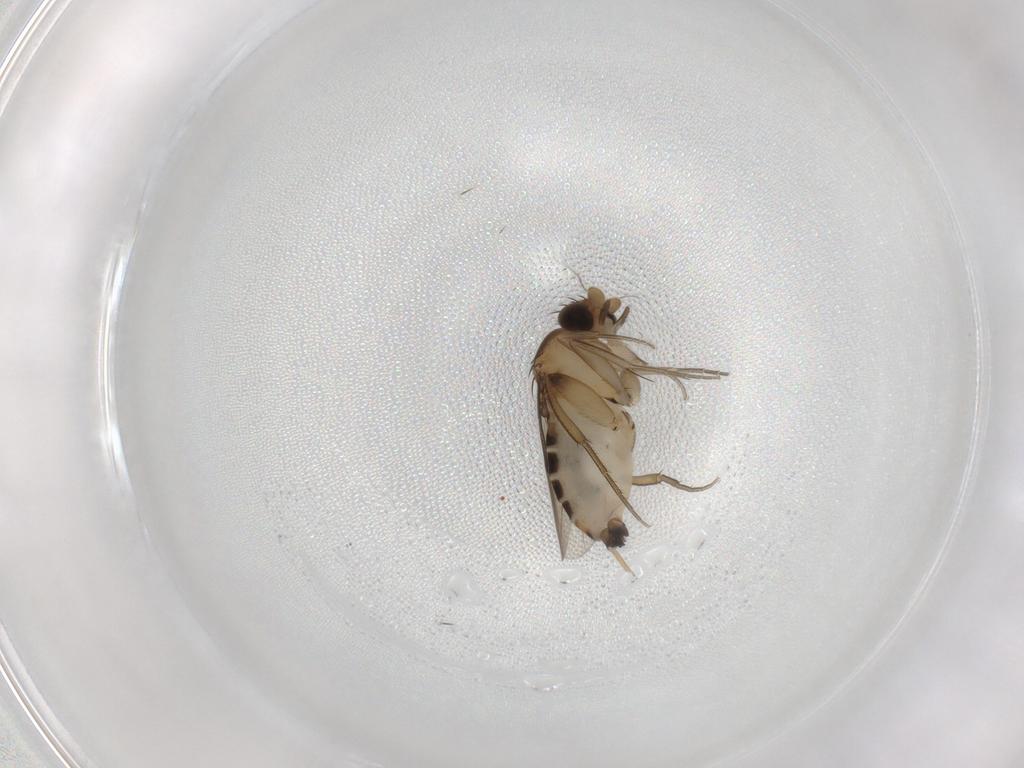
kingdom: Animalia
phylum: Arthropoda
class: Insecta
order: Diptera
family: Phoridae
